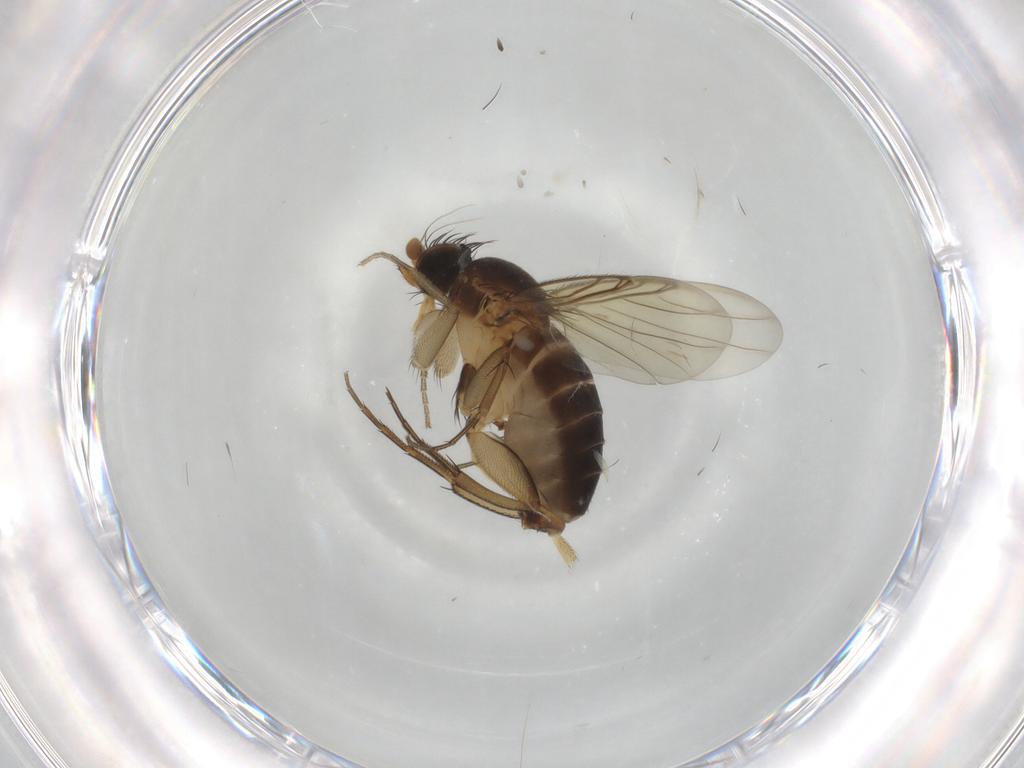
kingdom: Animalia
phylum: Arthropoda
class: Insecta
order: Diptera
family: Phoridae
